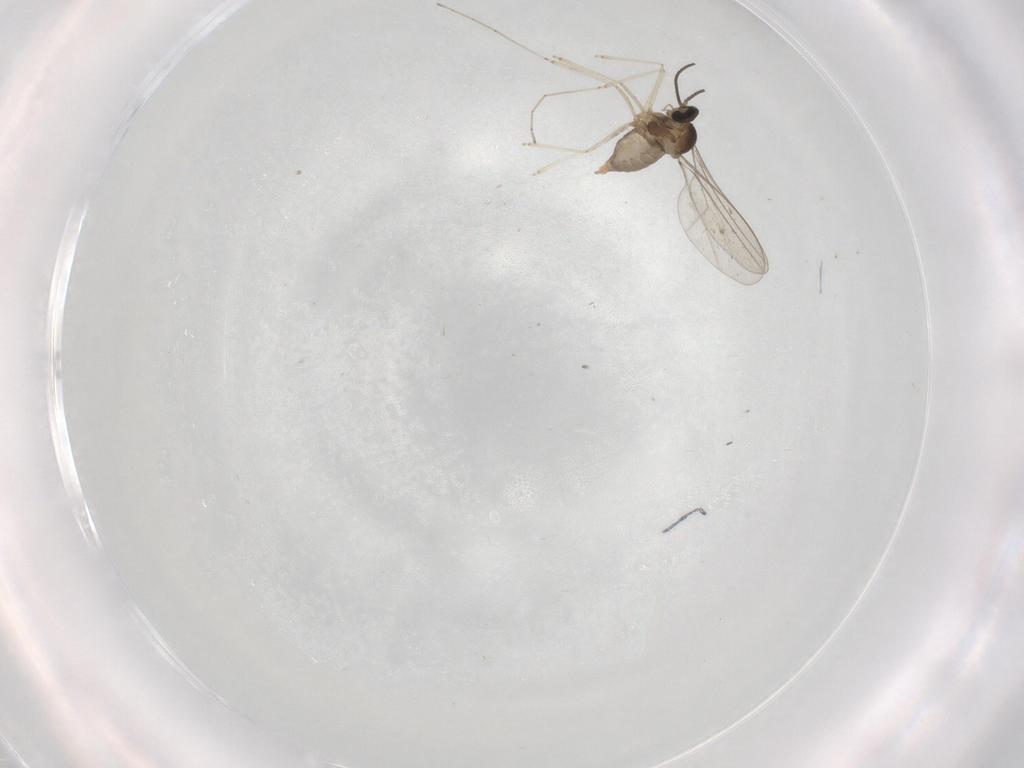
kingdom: Animalia
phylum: Arthropoda
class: Insecta
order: Diptera
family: Cecidomyiidae
